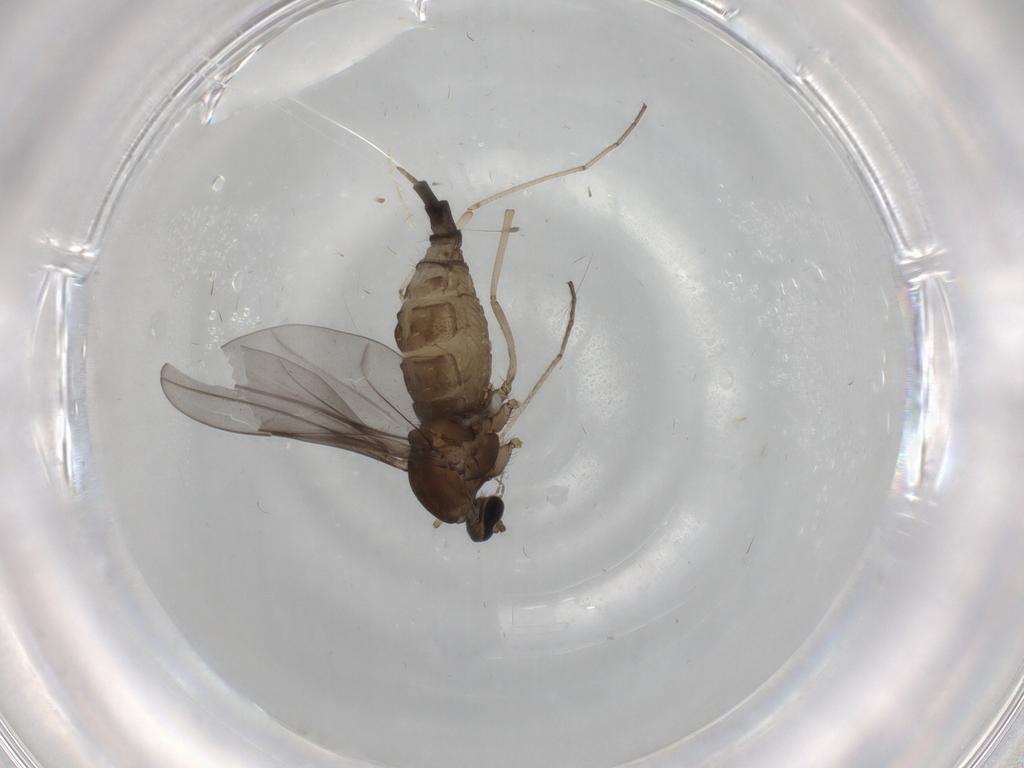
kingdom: Animalia
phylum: Arthropoda
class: Insecta
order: Diptera
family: Cecidomyiidae
